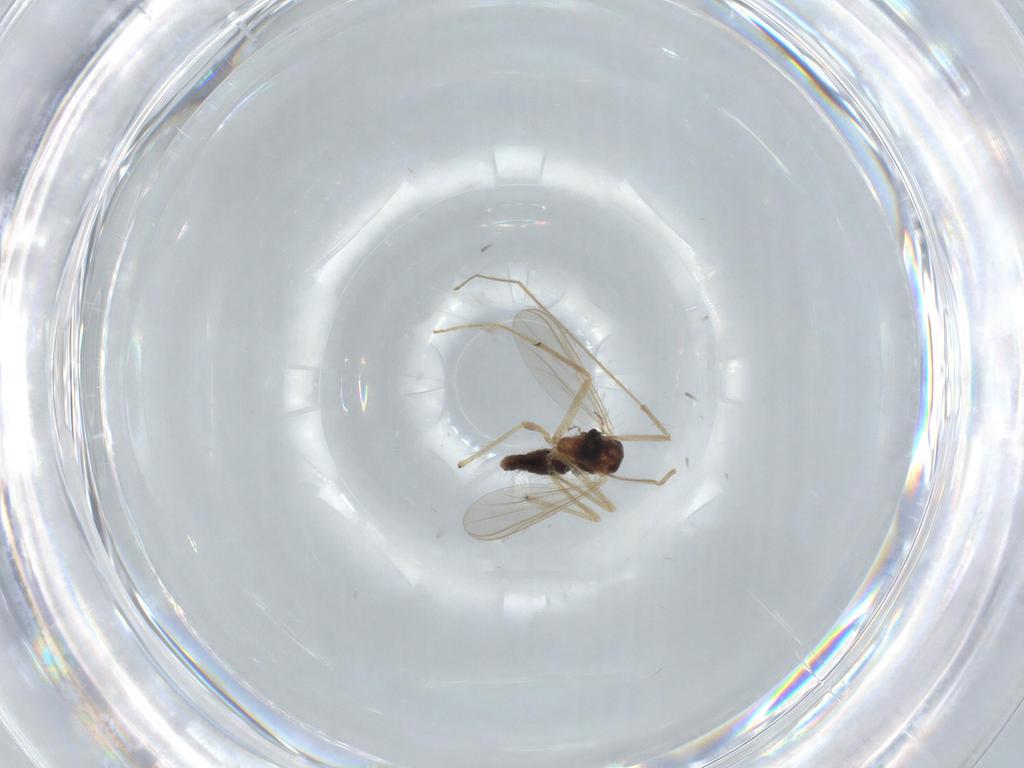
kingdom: Animalia
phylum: Arthropoda
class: Insecta
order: Diptera
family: Chironomidae
